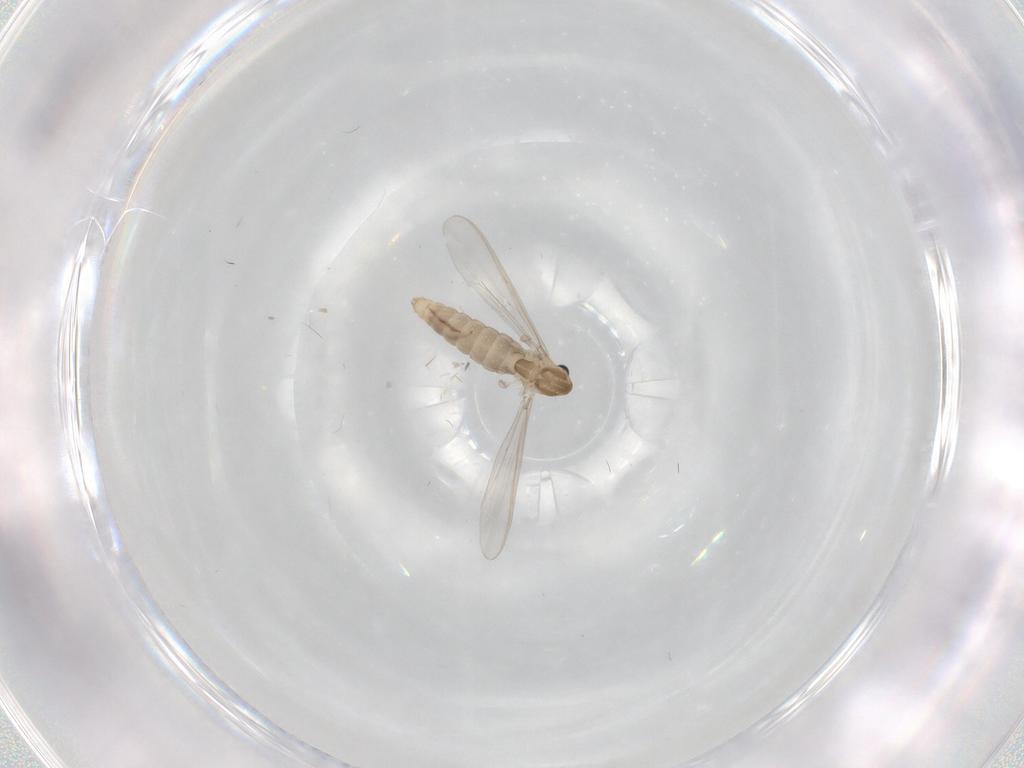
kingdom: Animalia
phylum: Arthropoda
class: Insecta
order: Diptera
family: Chironomidae
